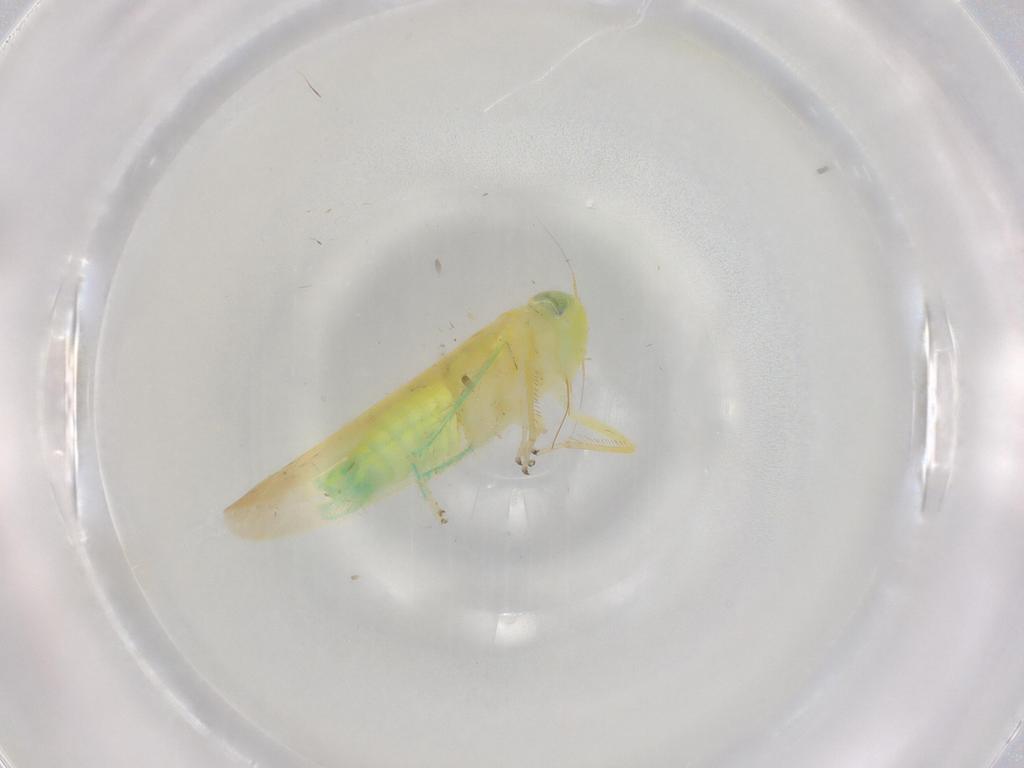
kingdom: Animalia
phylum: Arthropoda
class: Insecta
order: Hemiptera
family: Cicadellidae
